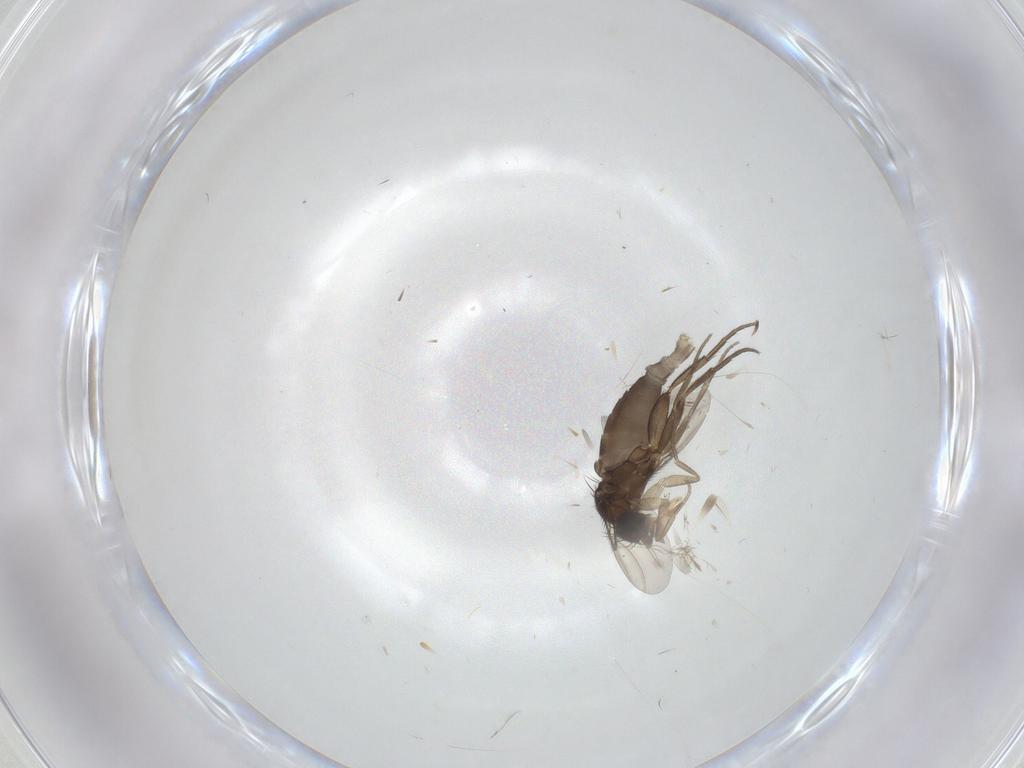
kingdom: Animalia
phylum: Arthropoda
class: Insecta
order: Diptera
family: Phoridae
